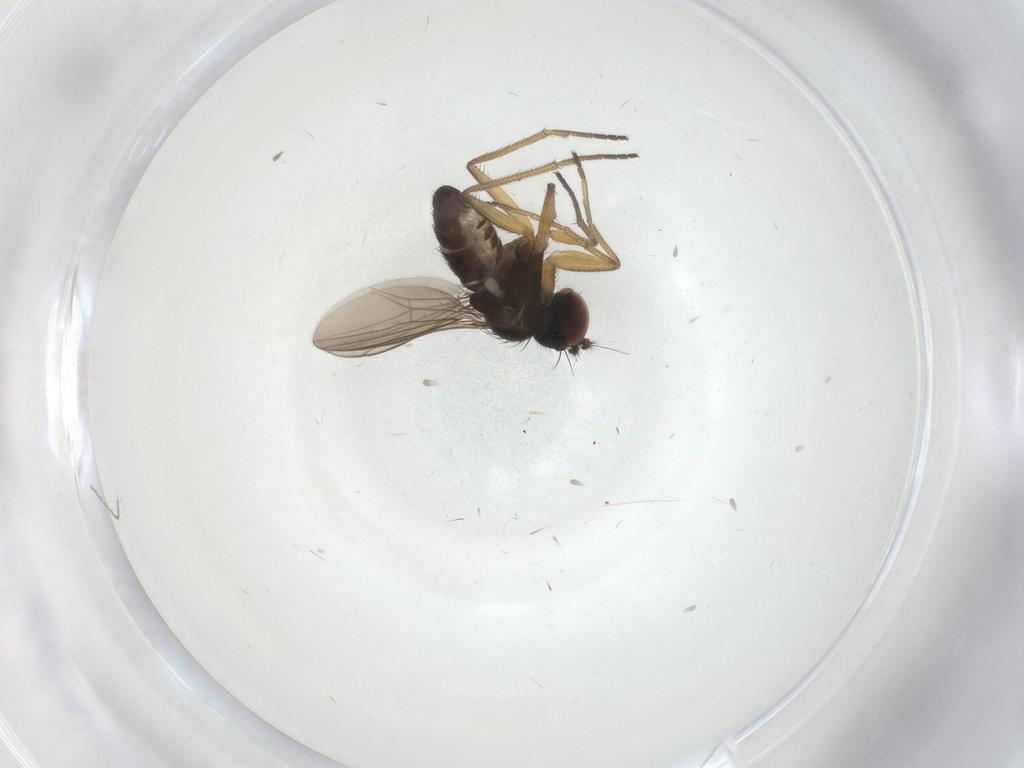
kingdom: Animalia
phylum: Arthropoda
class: Insecta
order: Diptera
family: Dolichopodidae
